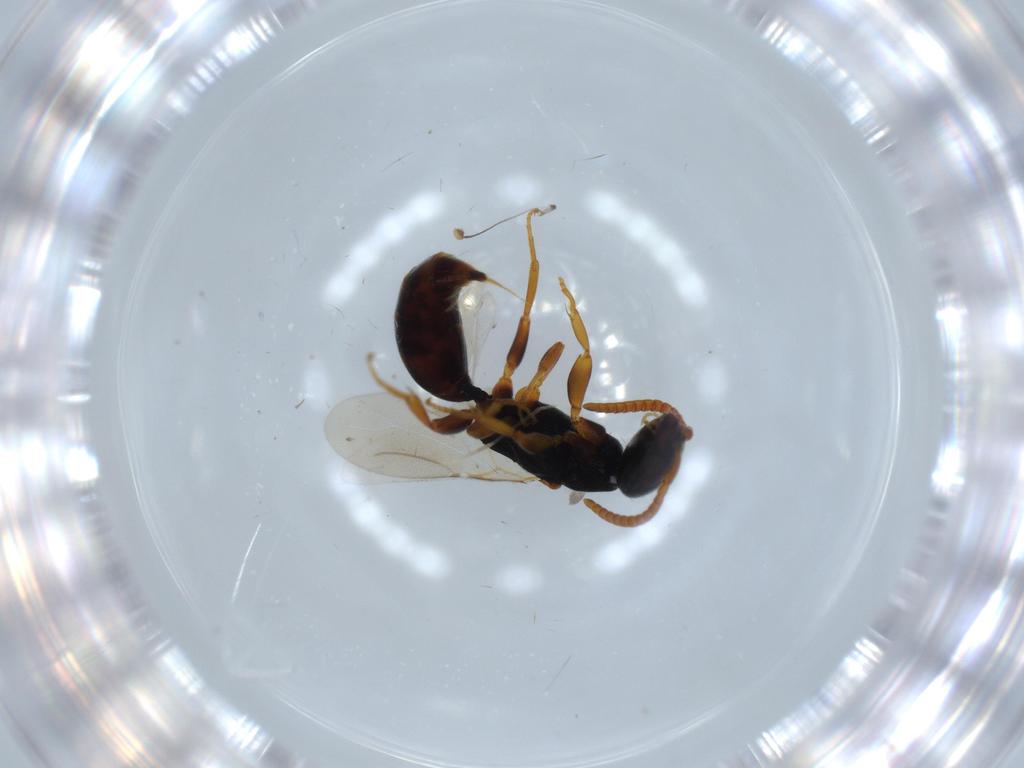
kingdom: Animalia
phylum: Arthropoda
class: Insecta
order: Hymenoptera
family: Bethylidae
